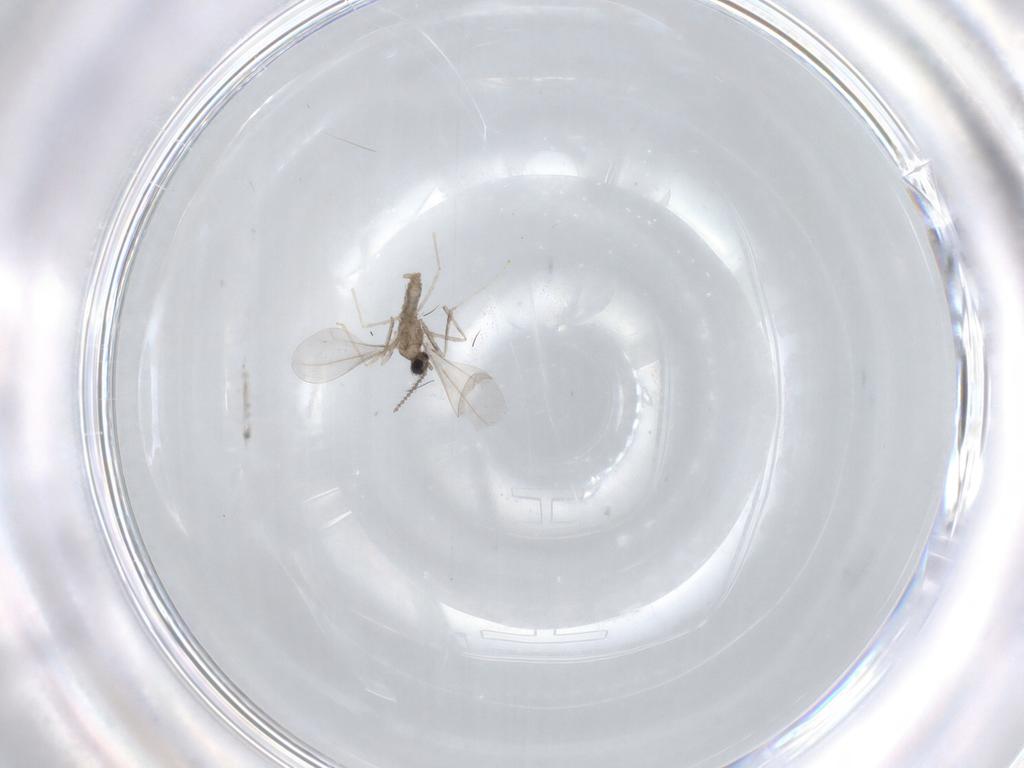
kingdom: Animalia
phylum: Arthropoda
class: Insecta
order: Diptera
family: Cecidomyiidae
